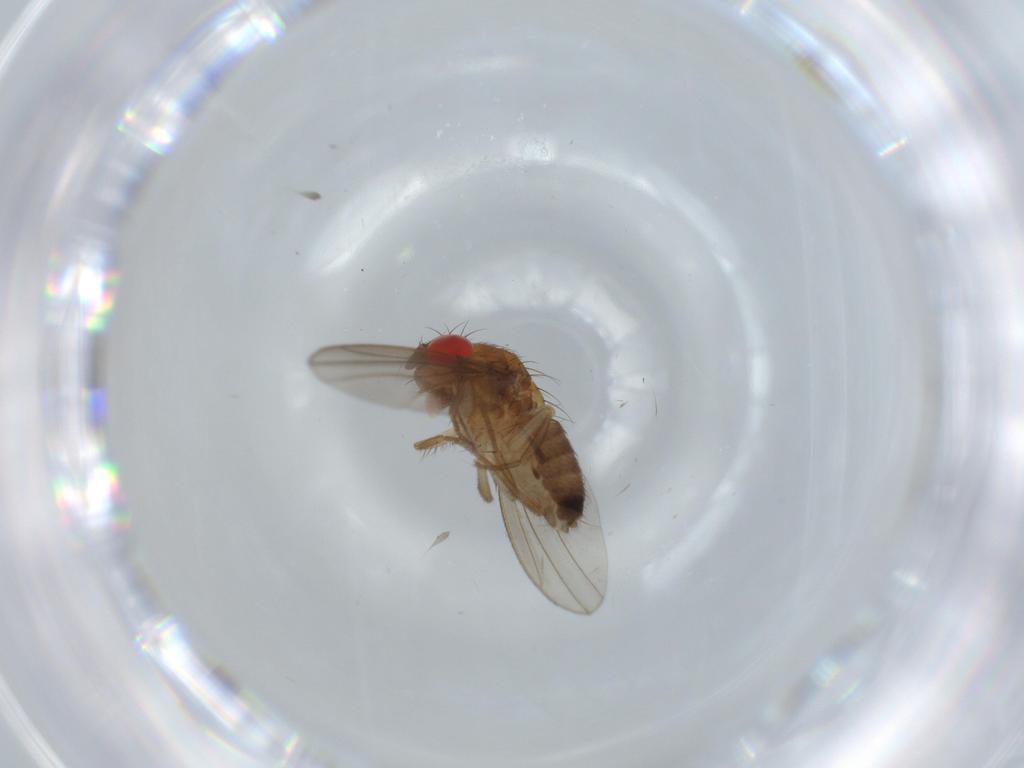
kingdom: Animalia
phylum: Arthropoda
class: Insecta
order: Diptera
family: Drosophilidae
